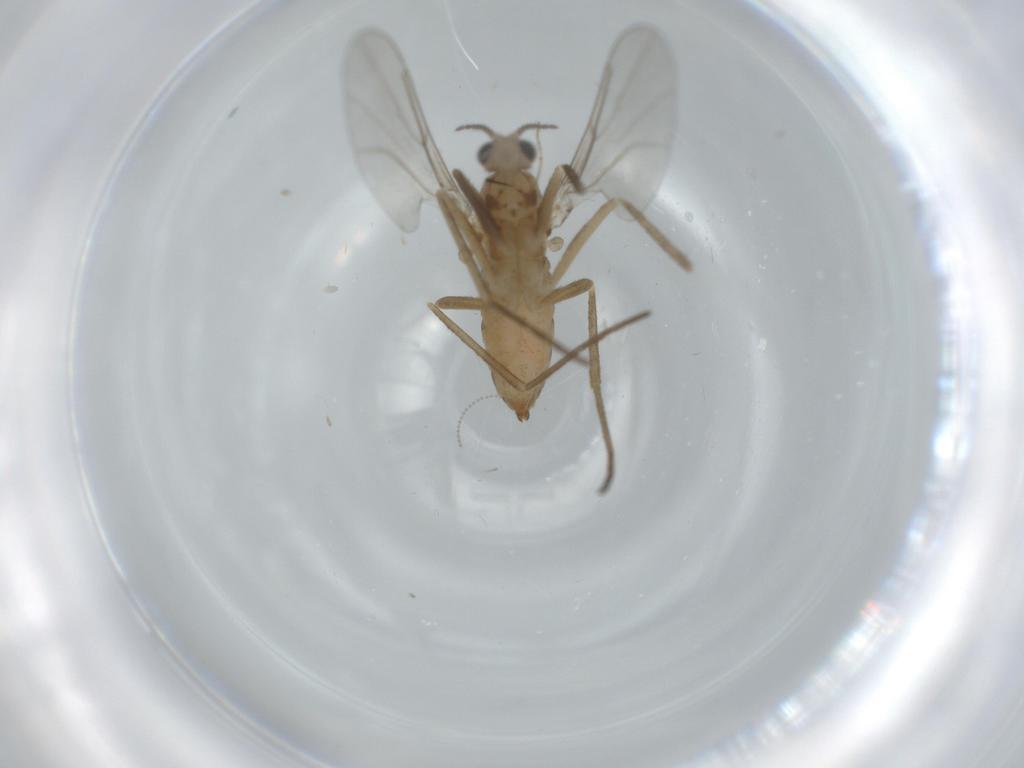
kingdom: Animalia
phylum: Arthropoda
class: Insecta
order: Diptera
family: Cecidomyiidae
